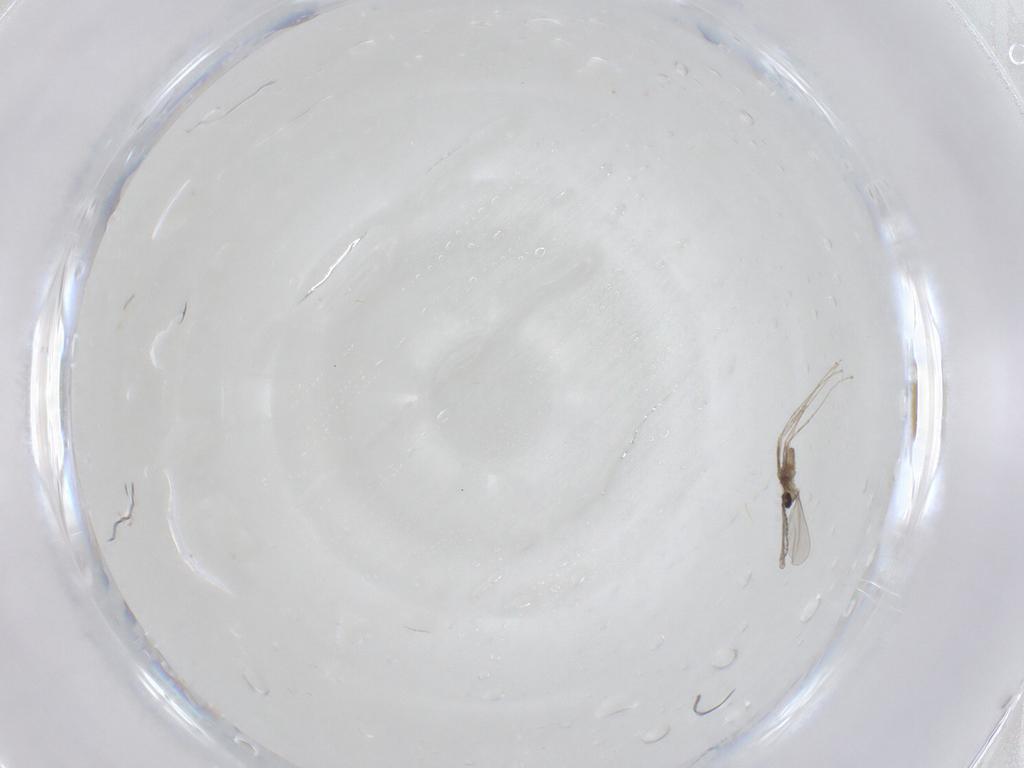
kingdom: Animalia
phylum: Arthropoda
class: Insecta
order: Diptera
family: Cecidomyiidae
